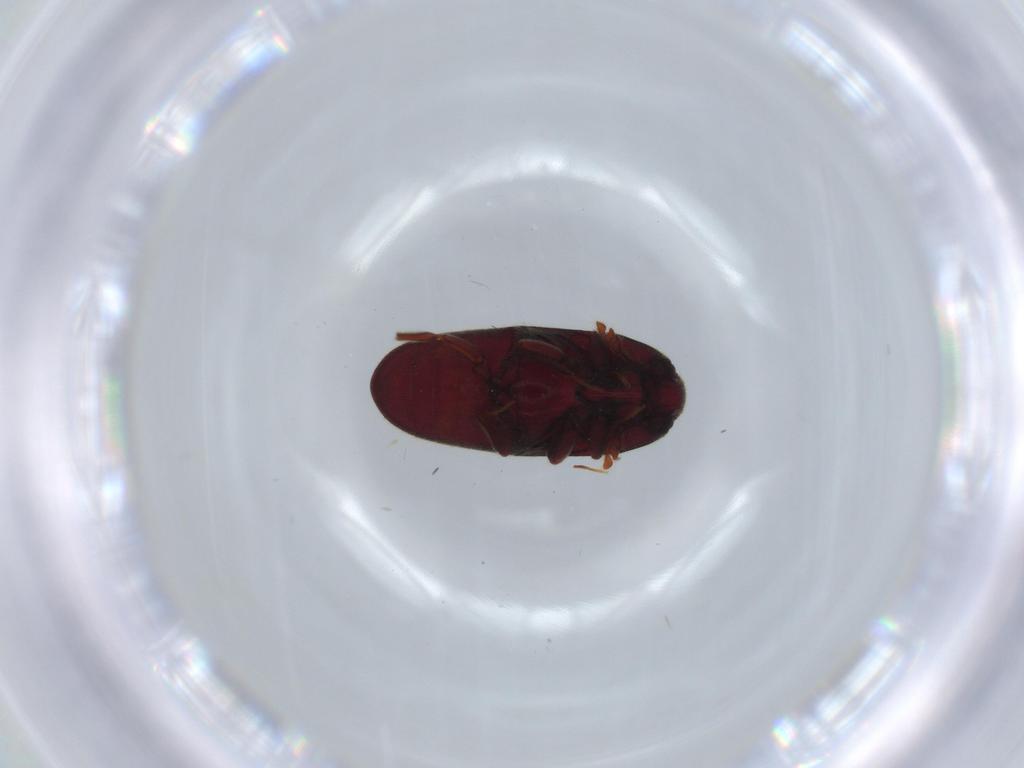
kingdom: Animalia
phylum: Arthropoda
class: Insecta
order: Coleoptera
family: Throscidae
